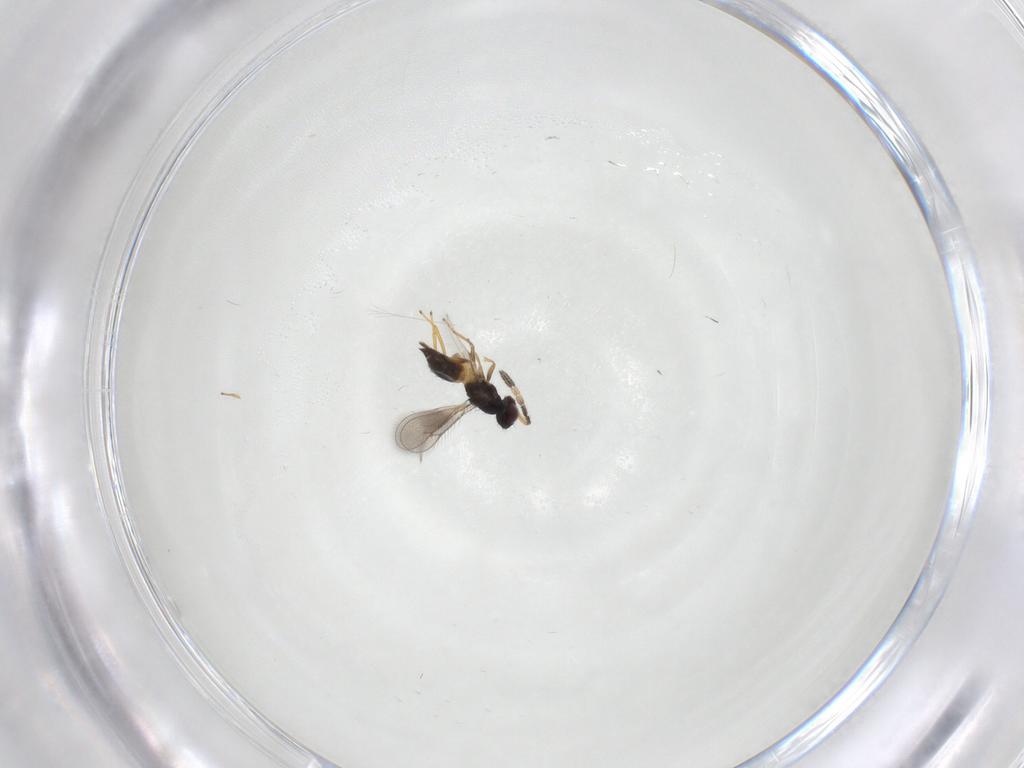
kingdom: Animalia
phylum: Arthropoda
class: Insecta
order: Hymenoptera
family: Eulophidae
